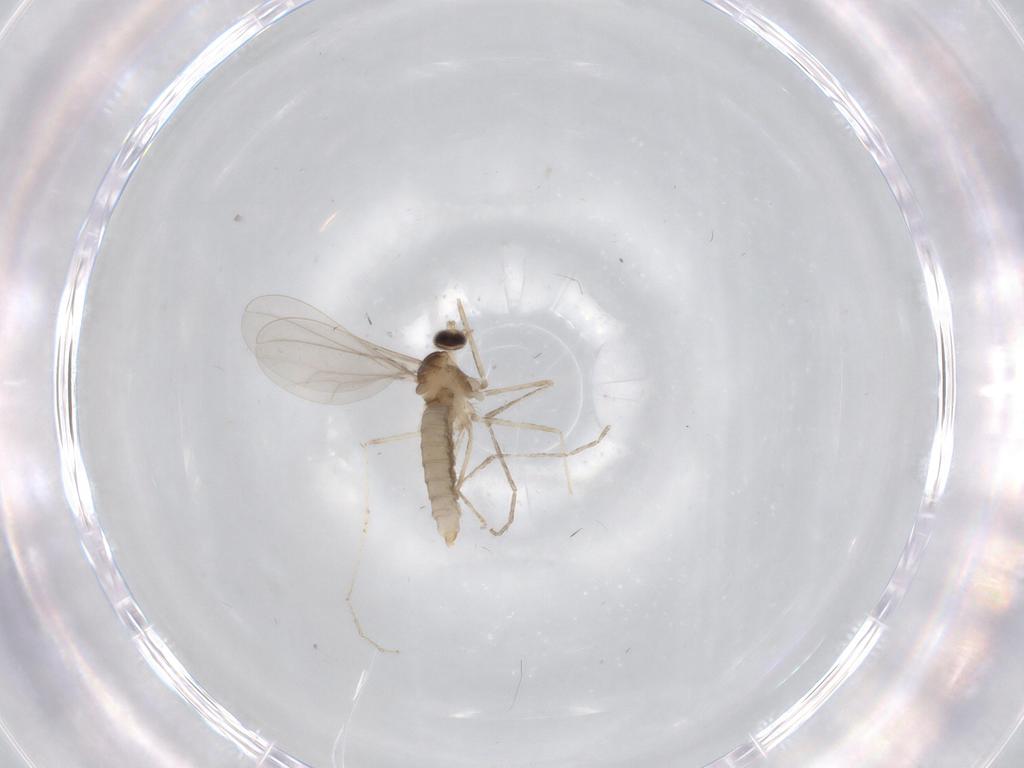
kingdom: Animalia
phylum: Arthropoda
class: Insecta
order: Diptera
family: Cecidomyiidae
